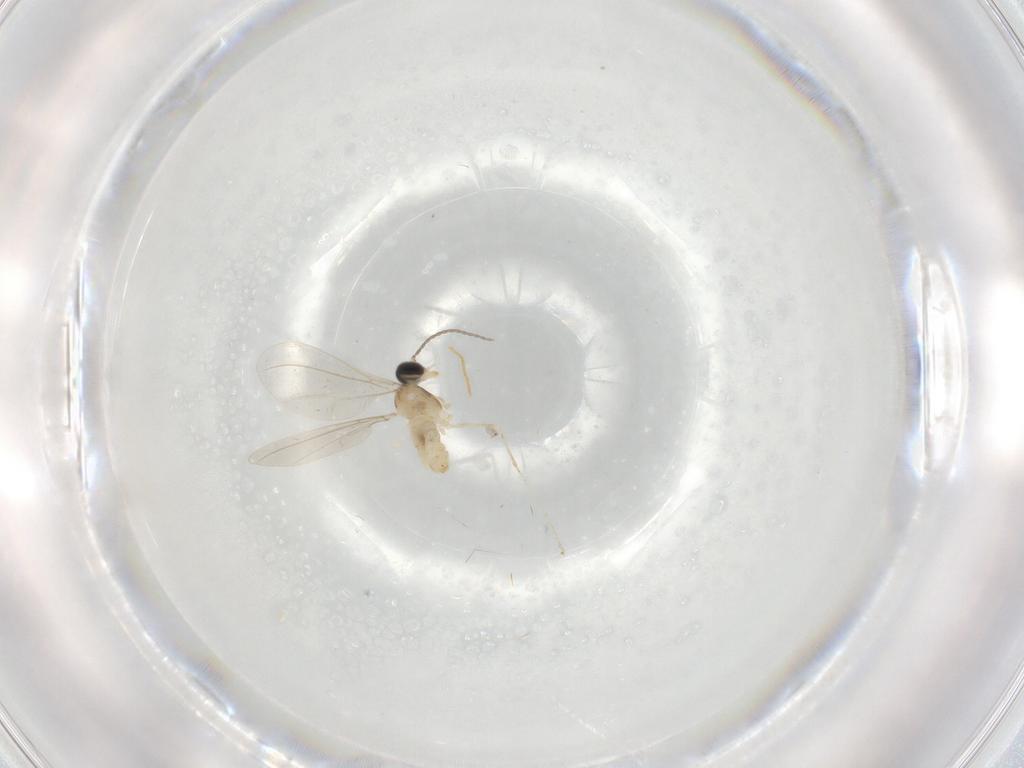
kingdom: Animalia
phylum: Arthropoda
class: Insecta
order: Diptera
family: Cecidomyiidae
